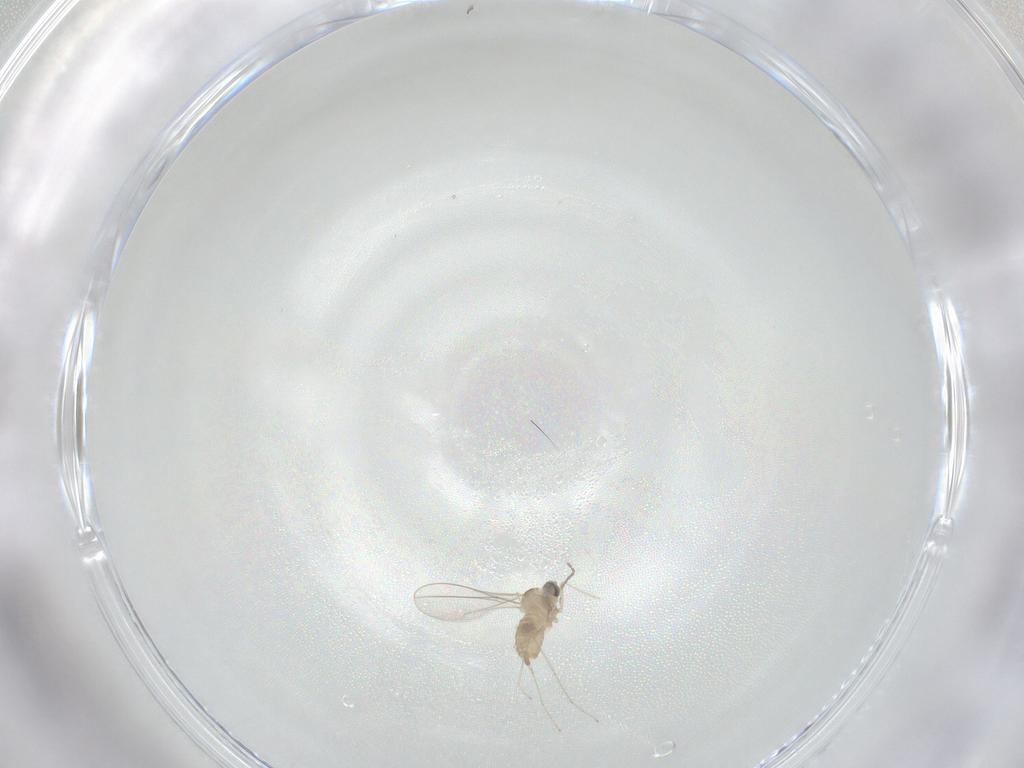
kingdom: Animalia
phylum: Arthropoda
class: Insecta
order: Diptera
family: Cecidomyiidae
